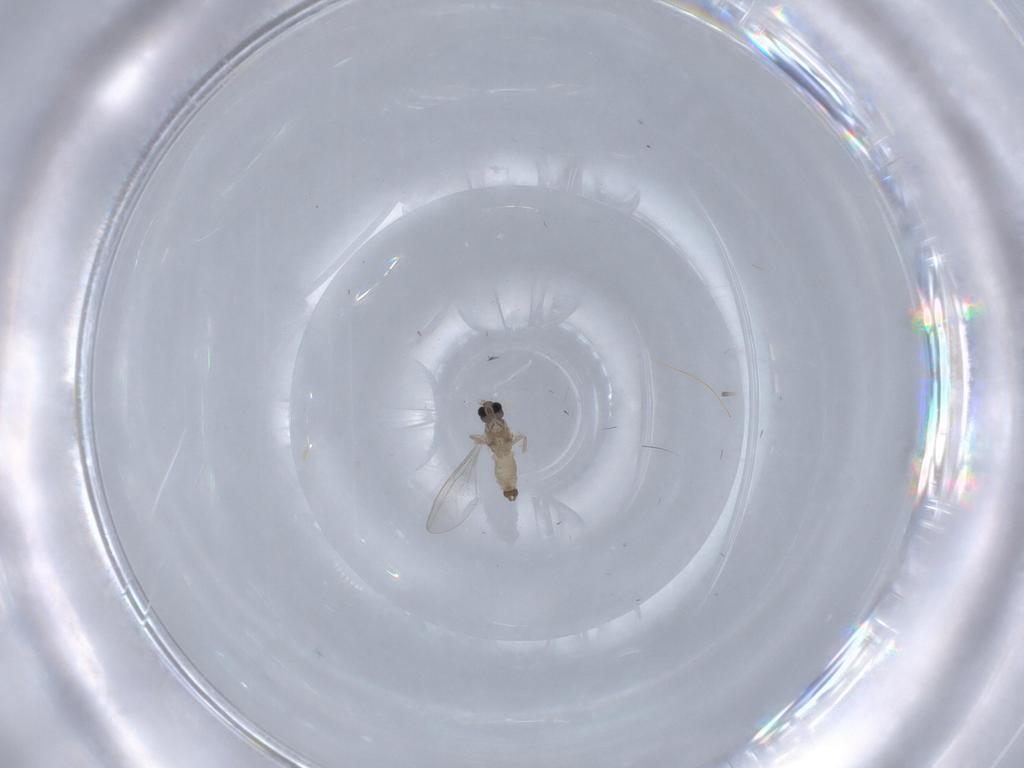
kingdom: Animalia
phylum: Arthropoda
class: Insecta
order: Diptera
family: Cecidomyiidae
